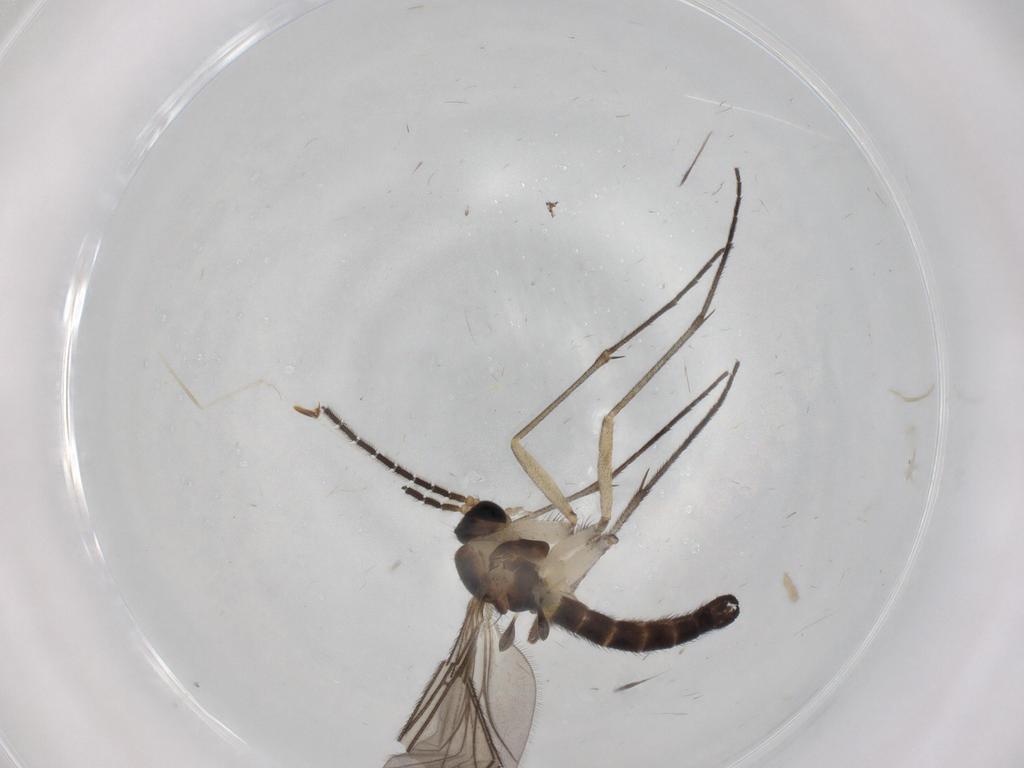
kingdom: Animalia
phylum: Arthropoda
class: Insecta
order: Diptera
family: Sciaridae
